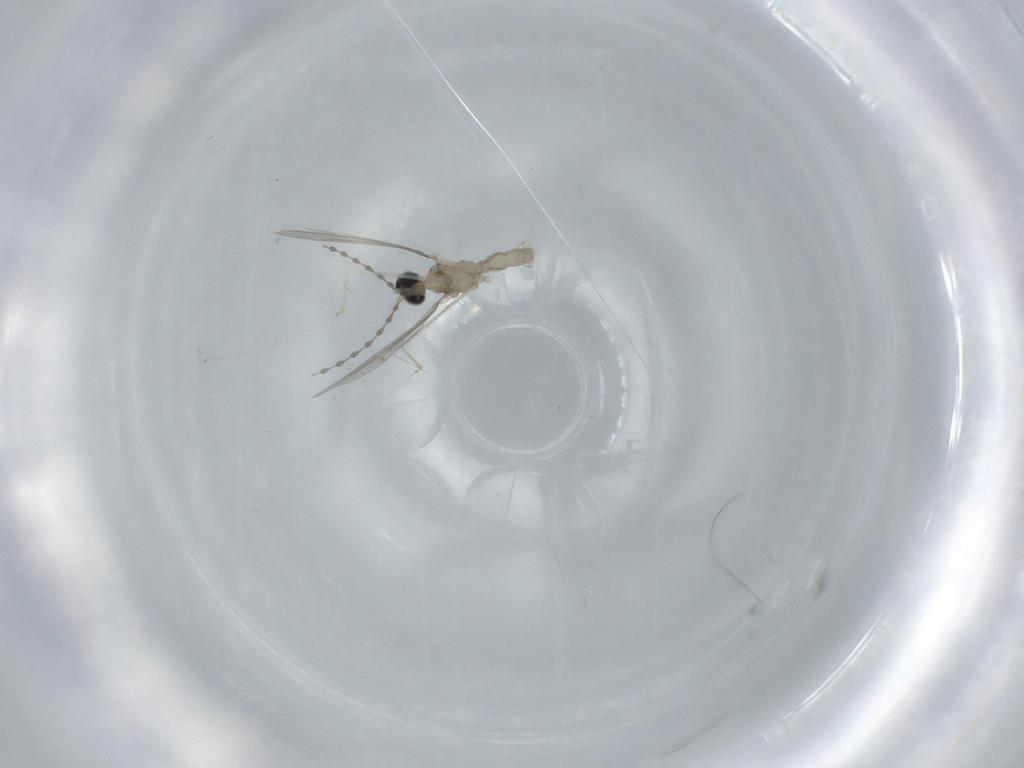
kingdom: Animalia
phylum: Arthropoda
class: Insecta
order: Diptera
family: Cecidomyiidae
